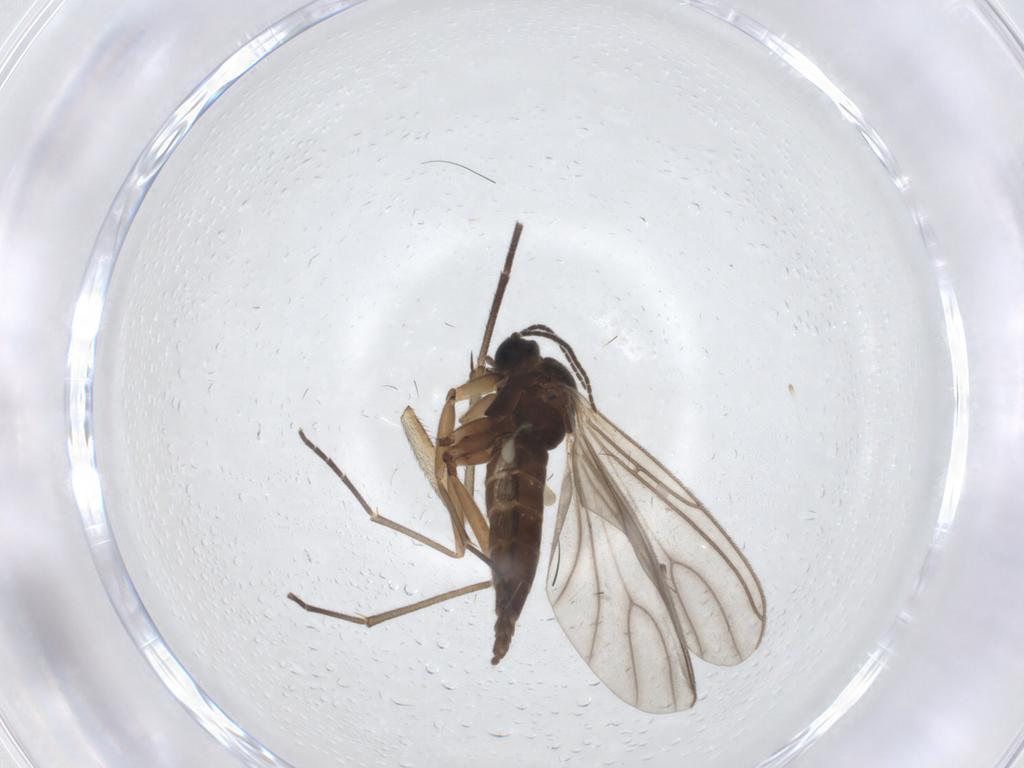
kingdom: Animalia
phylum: Arthropoda
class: Insecta
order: Diptera
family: Sciaridae
